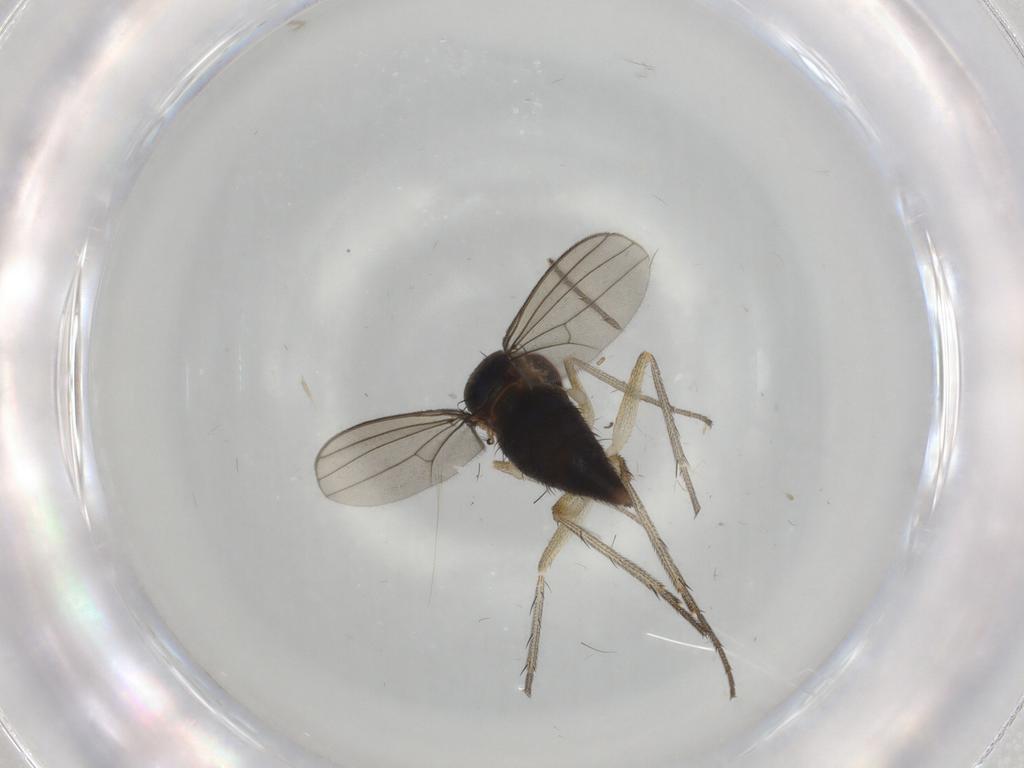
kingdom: Animalia
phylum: Arthropoda
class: Insecta
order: Diptera
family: Dolichopodidae
